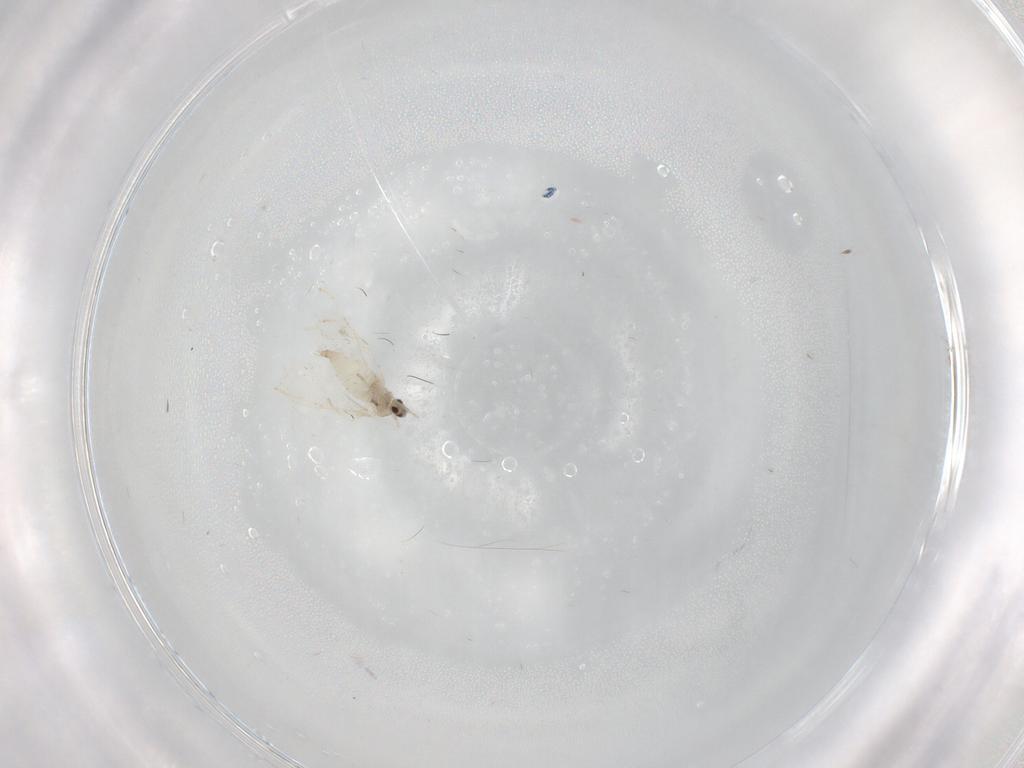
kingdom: Animalia
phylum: Arthropoda
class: Insecta
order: Diptera
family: Cecidomyiidae
